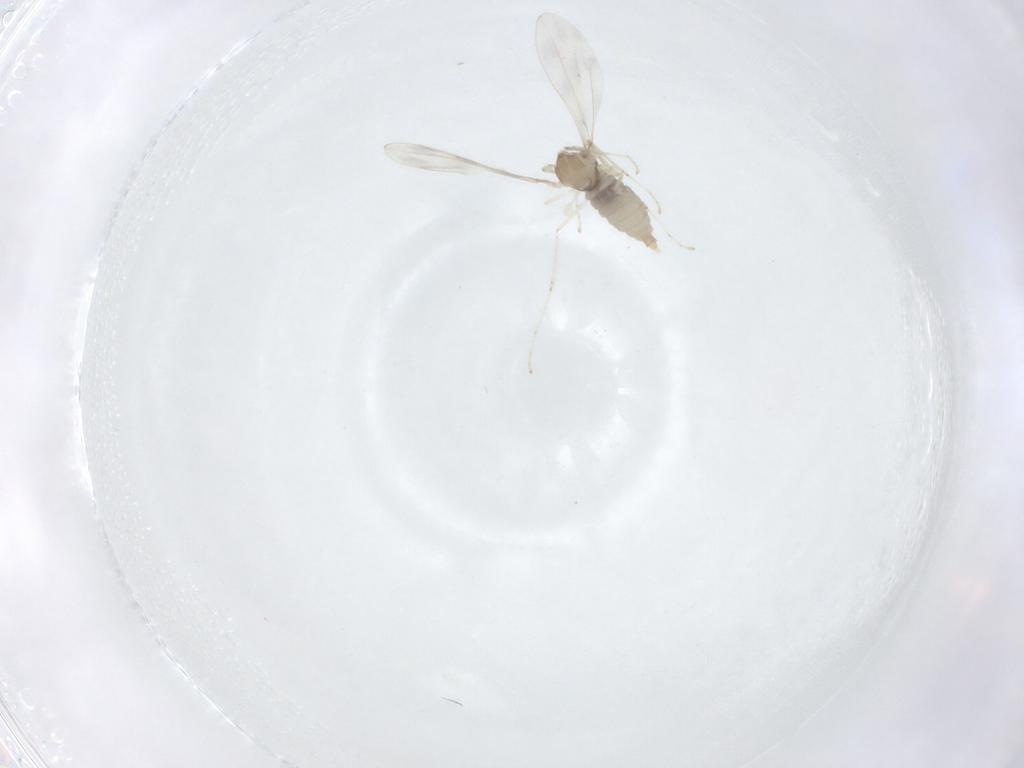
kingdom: Animalia
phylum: Arthropoda
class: Insecta
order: Diptera
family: Cecidomyiidae
